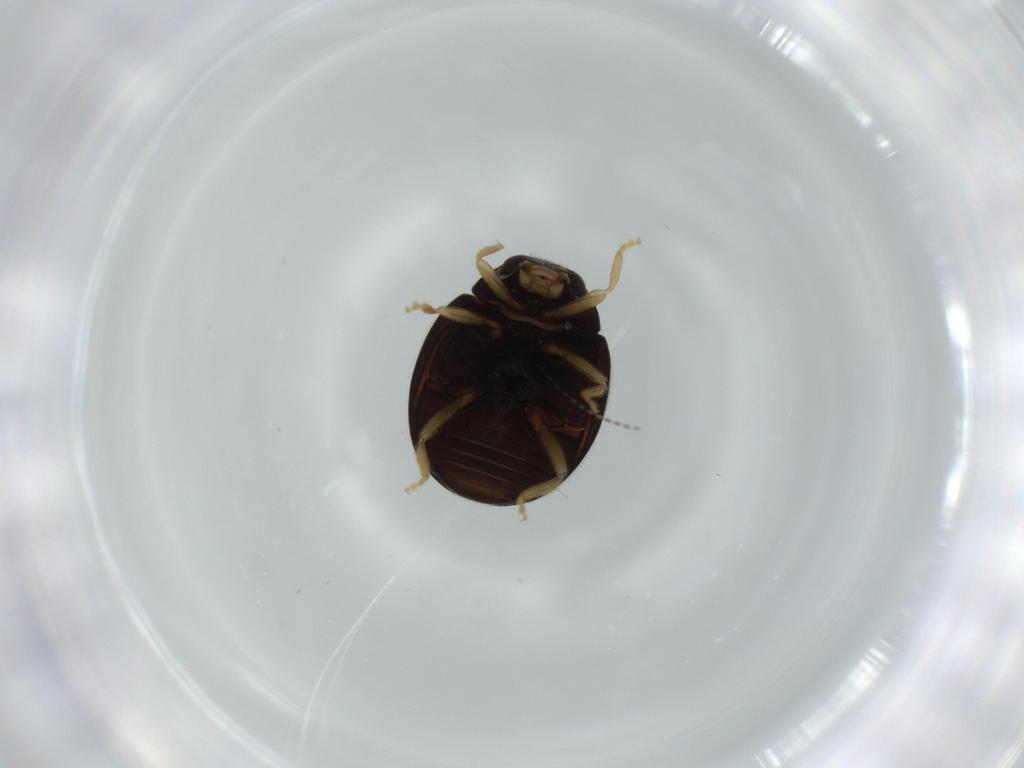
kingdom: Animalia
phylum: Arthropoda
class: Insecta
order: Coleoptera
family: Coccinellidae
